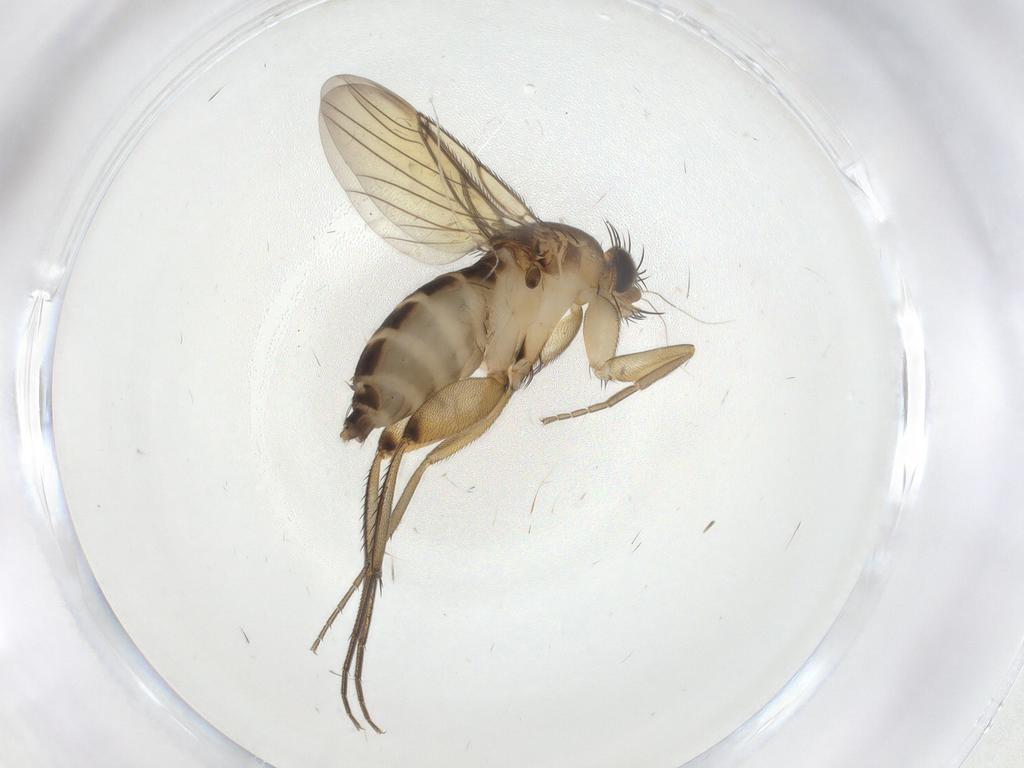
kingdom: Animalia
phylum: Arthropoda
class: Insecta
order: Diptera
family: Phoridae
